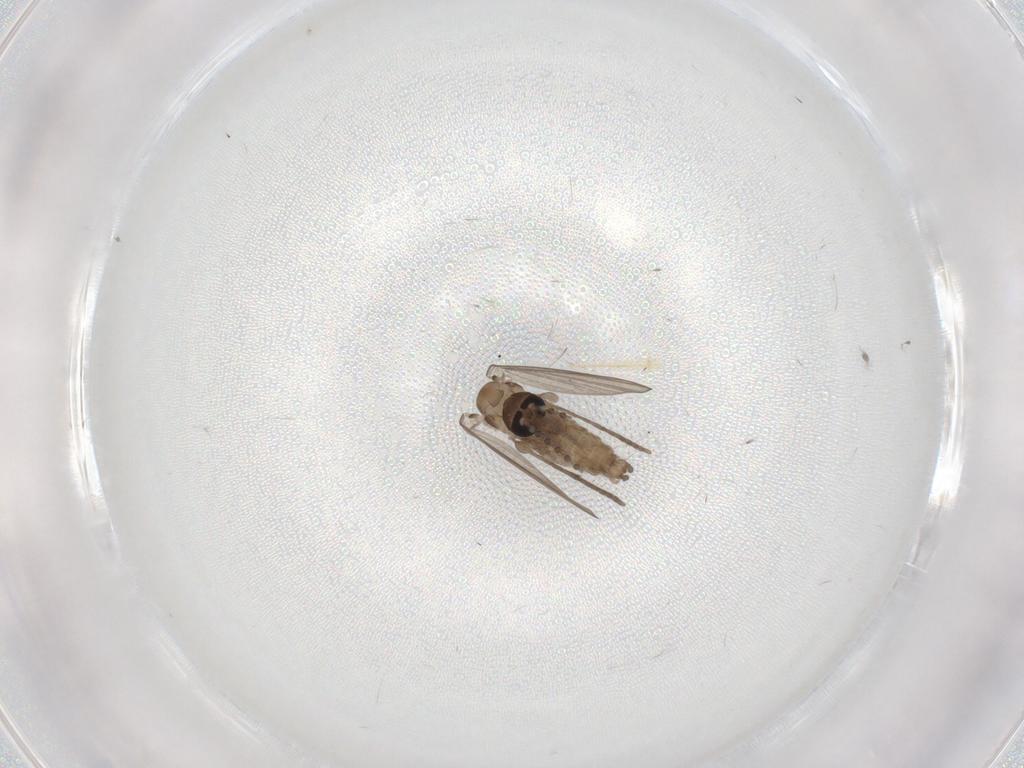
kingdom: Animalia
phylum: Arthropoda
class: Insecta
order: Diptera
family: Psychodidae
